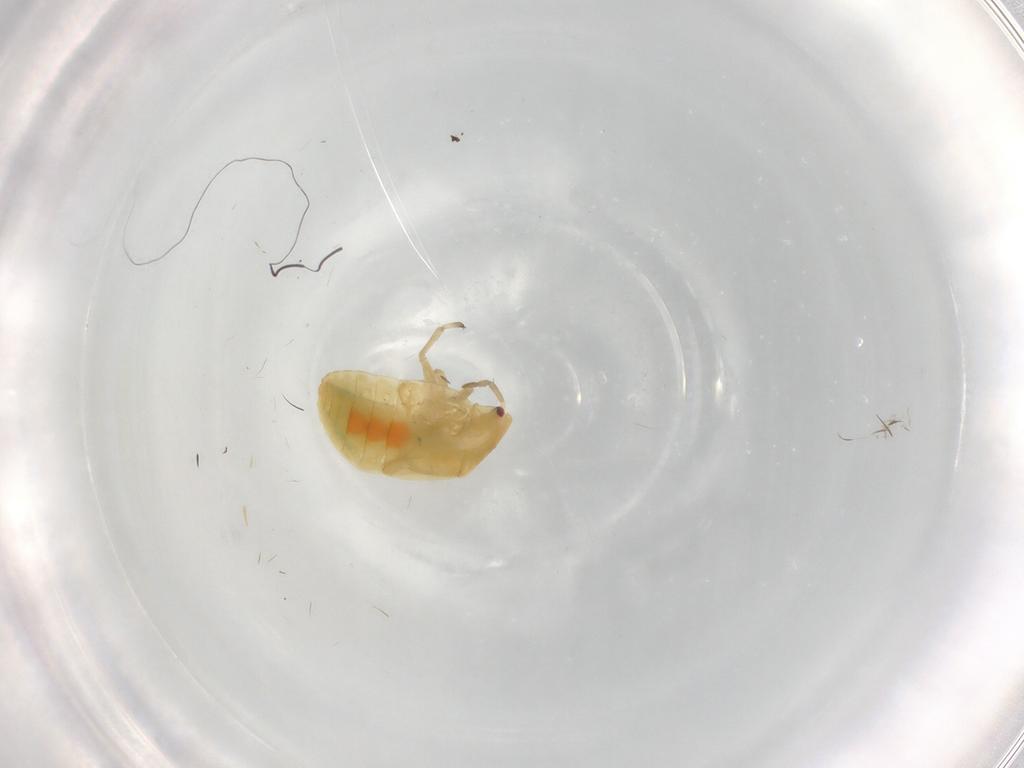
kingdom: Animalia
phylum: Arthropoda
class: Insecta
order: Hemiptera
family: Anthocoridae
